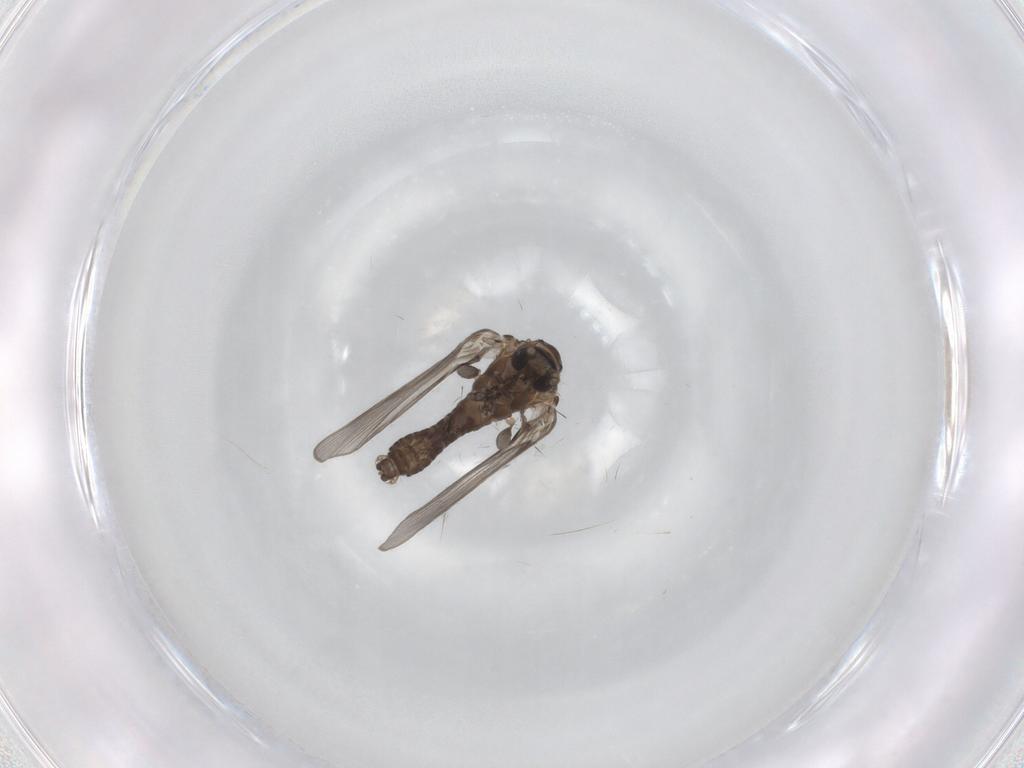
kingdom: Animalia
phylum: Arthropoda
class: Insecta
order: Diptera
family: Psychodidae
